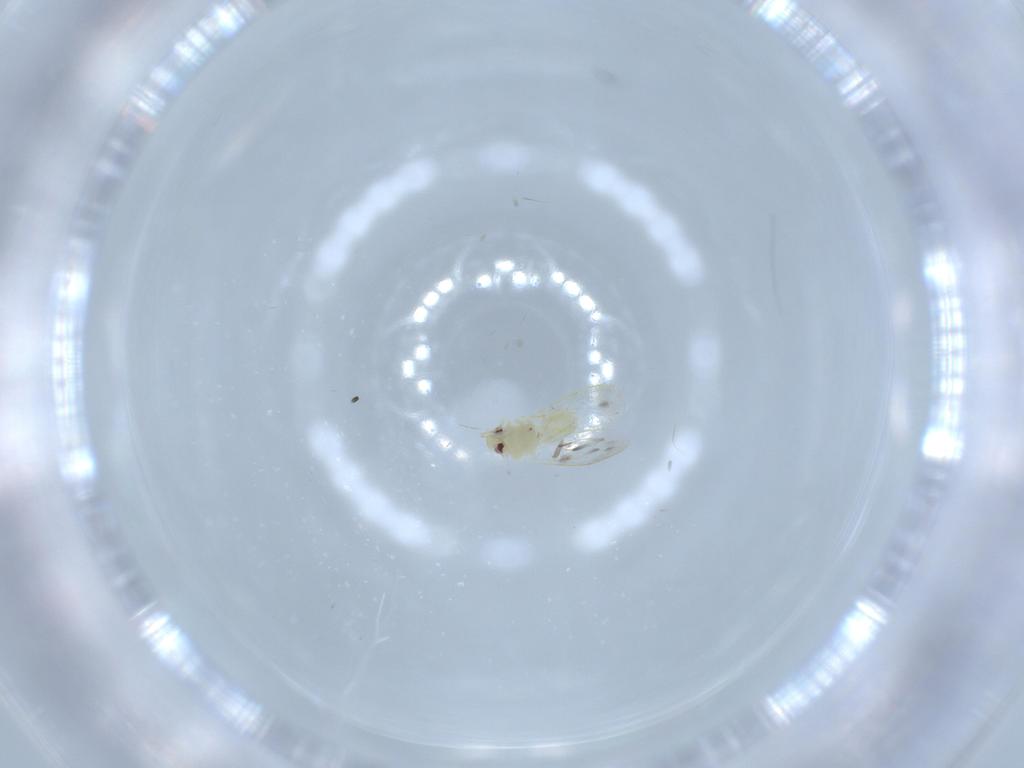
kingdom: Animalia
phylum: Arthropoda
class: Insecta
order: Hemiptera
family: Aleyrodidae
